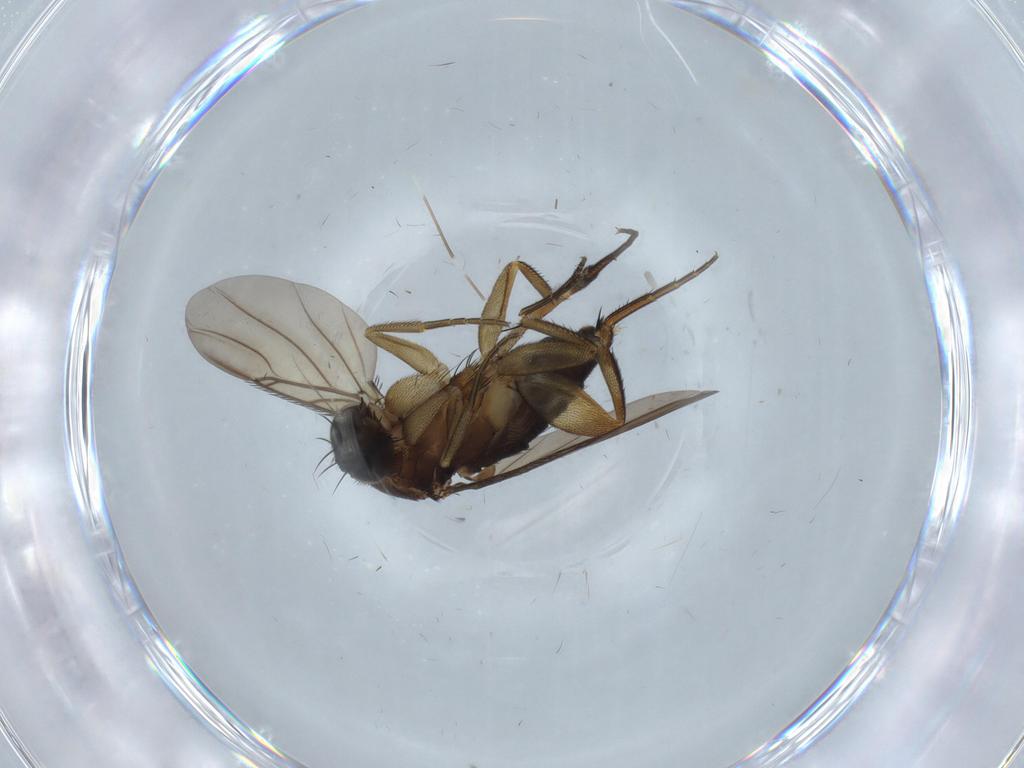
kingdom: Animalia
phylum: Arthropoda
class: Insecta
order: Diptera
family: Phoridae
